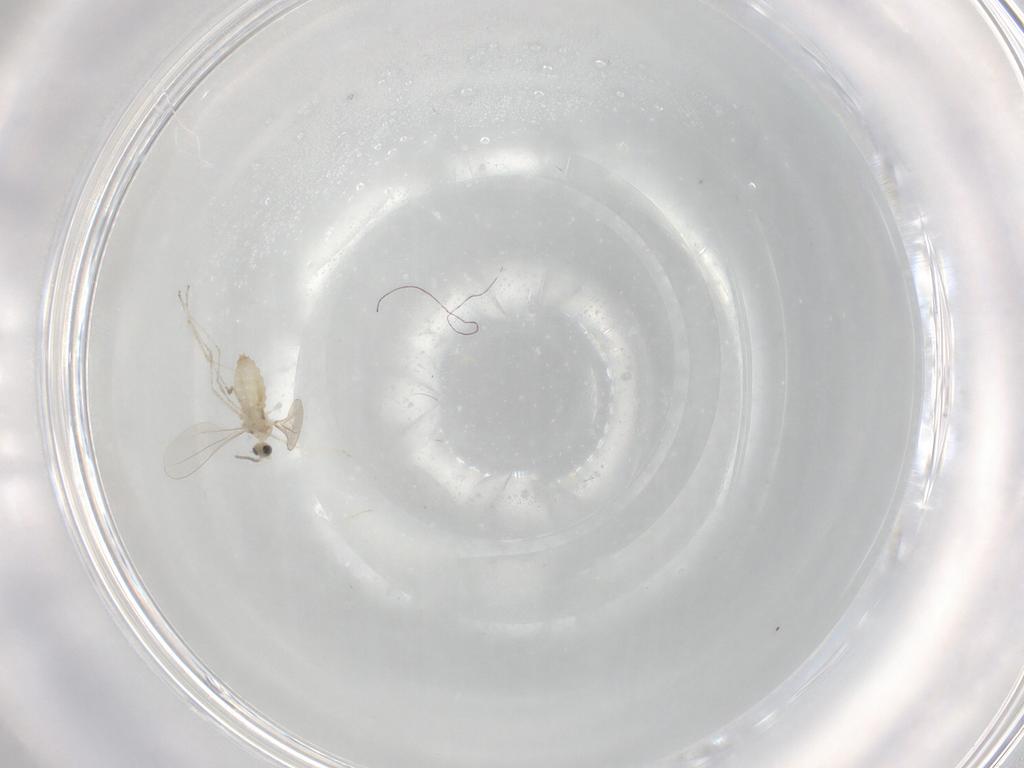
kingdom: Animalia
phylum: Arthropoda
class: Insecta
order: Diptera
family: Cecidomyiidae
